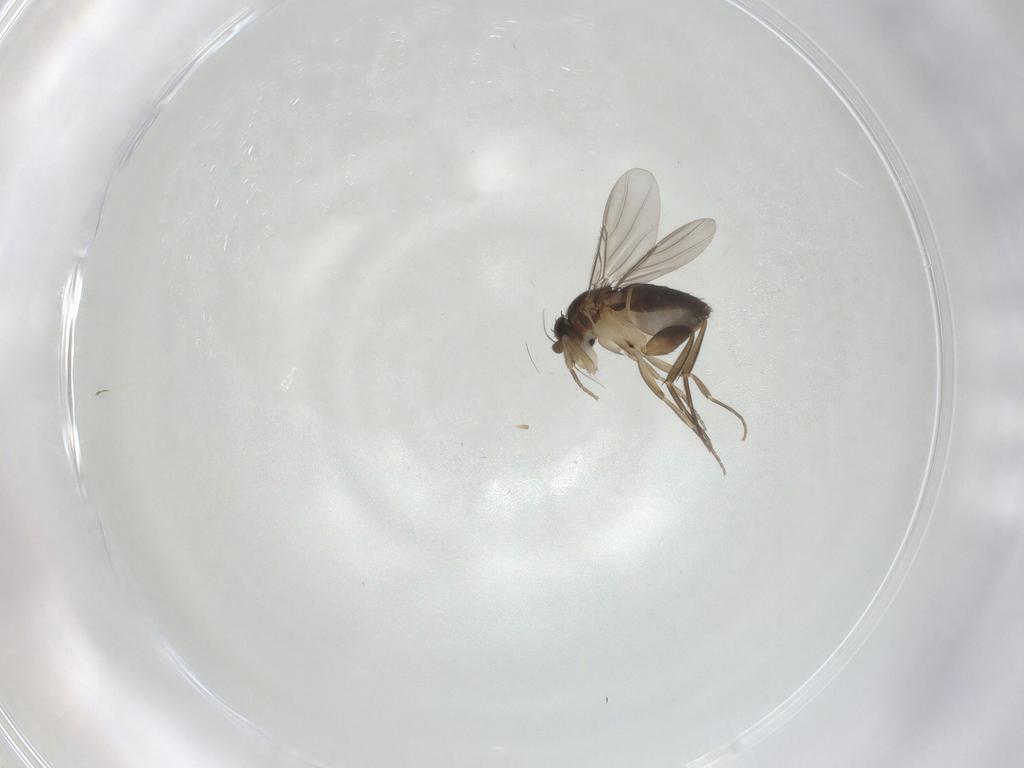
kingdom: Animalia
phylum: Arthropoda
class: Insecta
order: Diptera
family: Phoridae
